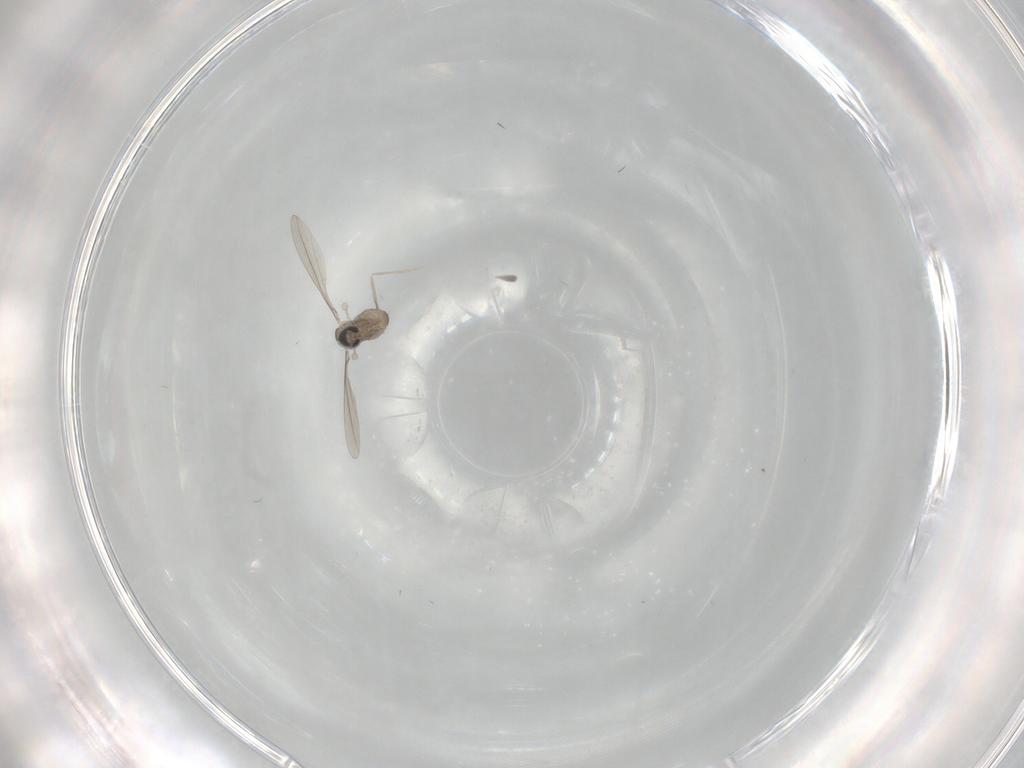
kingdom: Animalia
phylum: Arthropoda
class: Insecta
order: Diptera
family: Cecidomyiidae
